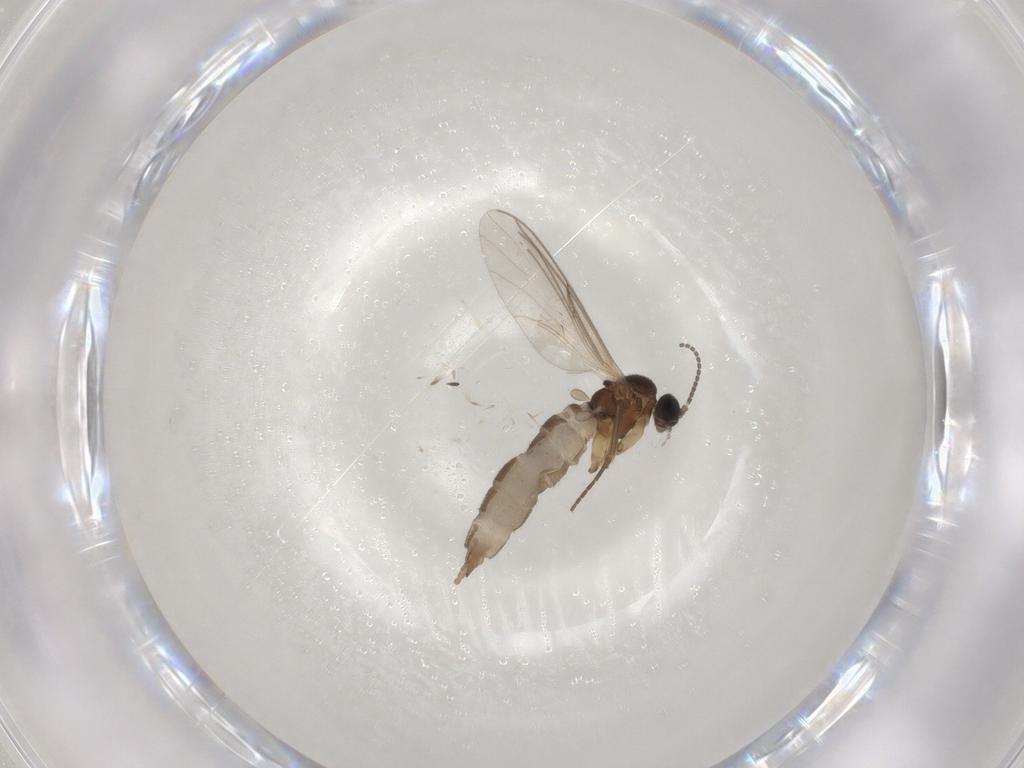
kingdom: Animalia
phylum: Arthropoda
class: Insecta
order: Diptera
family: Sciaridae
